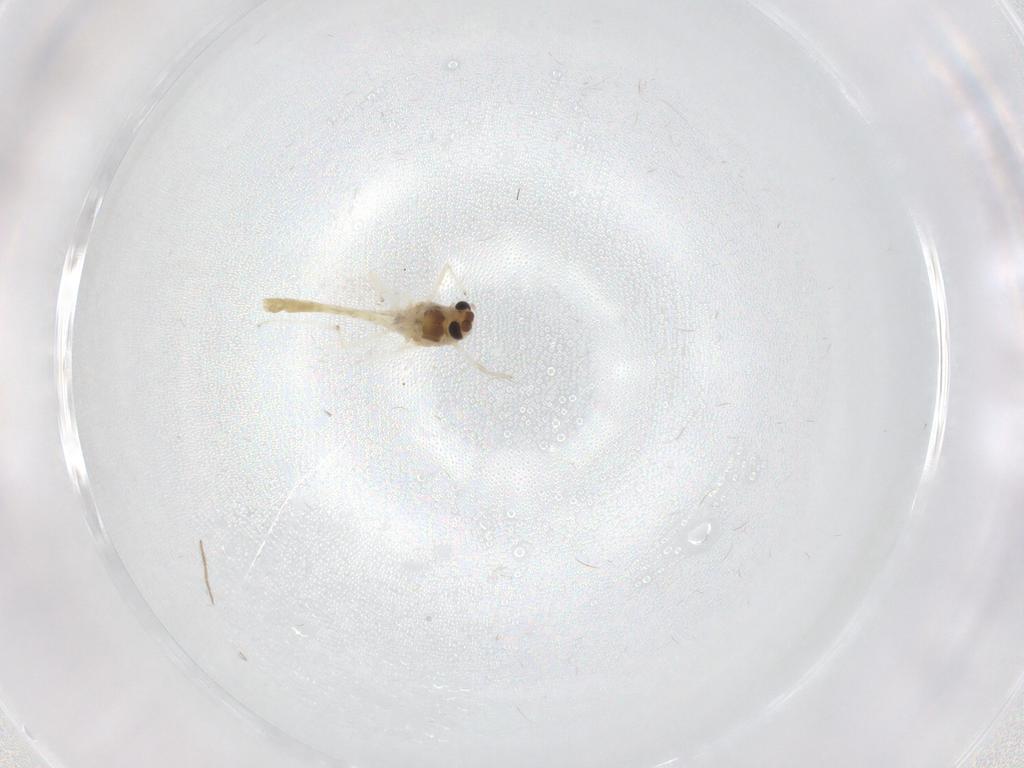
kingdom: Animalia
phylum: Arthropoda
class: Insecta
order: Diptera
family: Chironomidae
